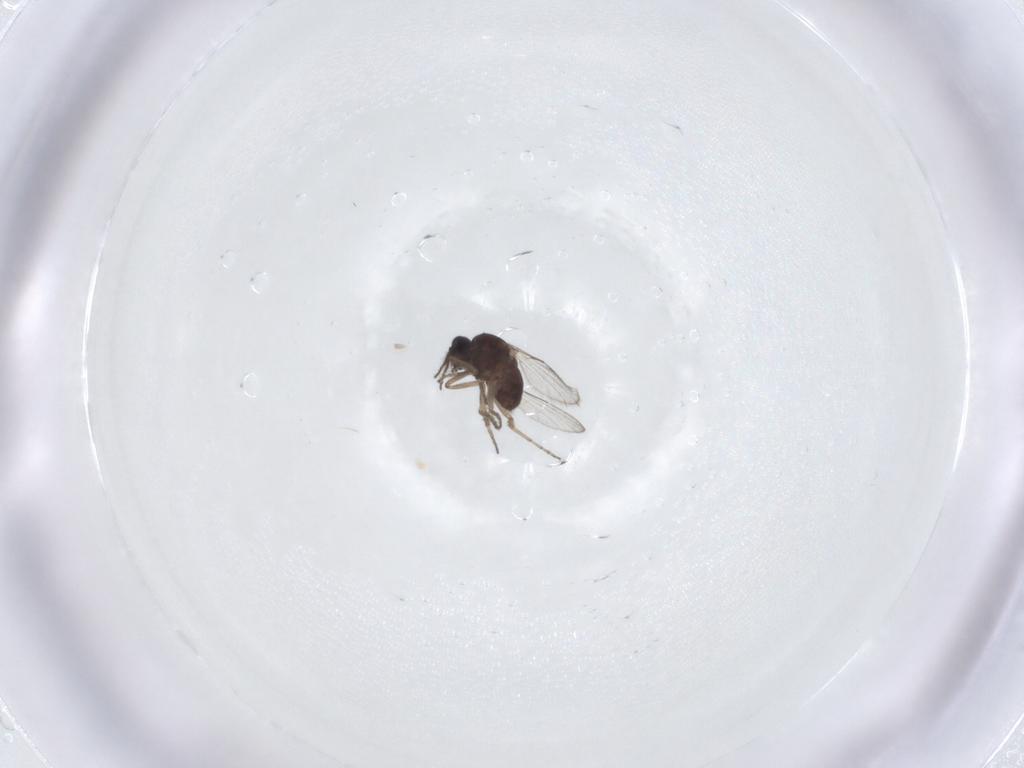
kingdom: Animalia
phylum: Arthropoda
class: Insecta
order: Diptera
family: Ceratopogonidae
